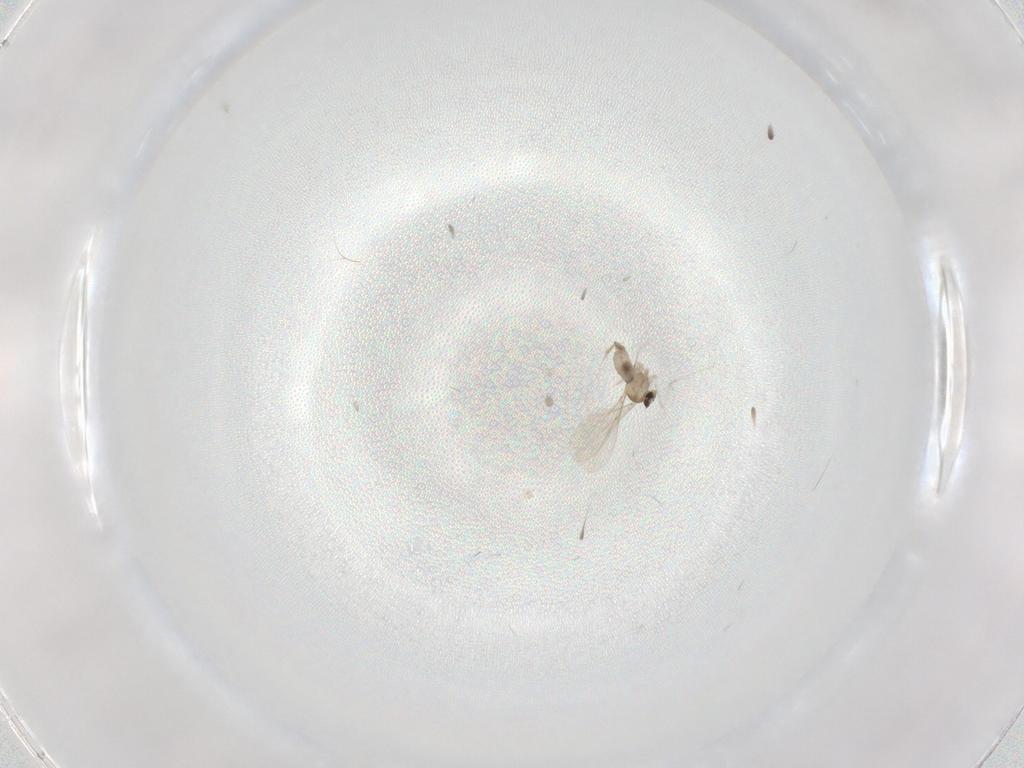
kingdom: Animalia
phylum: Arthropoda
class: Insecta
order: Diptera
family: Cecidomyiidae
